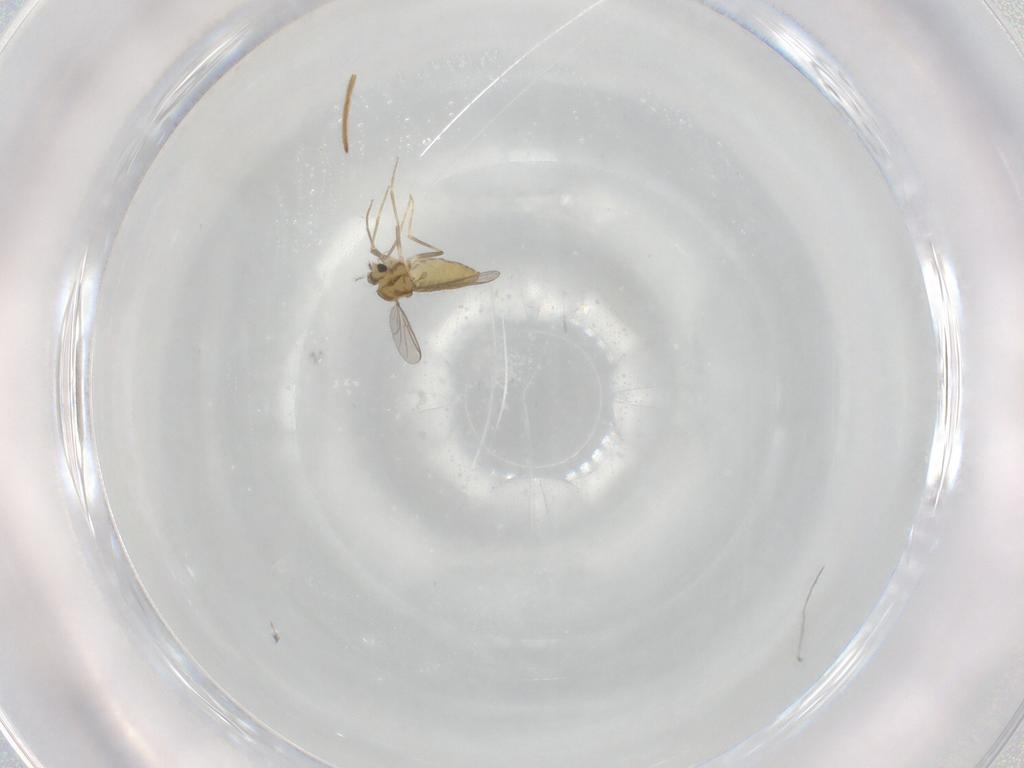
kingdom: Animalia
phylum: Arthropoda
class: Insecta
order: Diptera
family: Chironomidae
